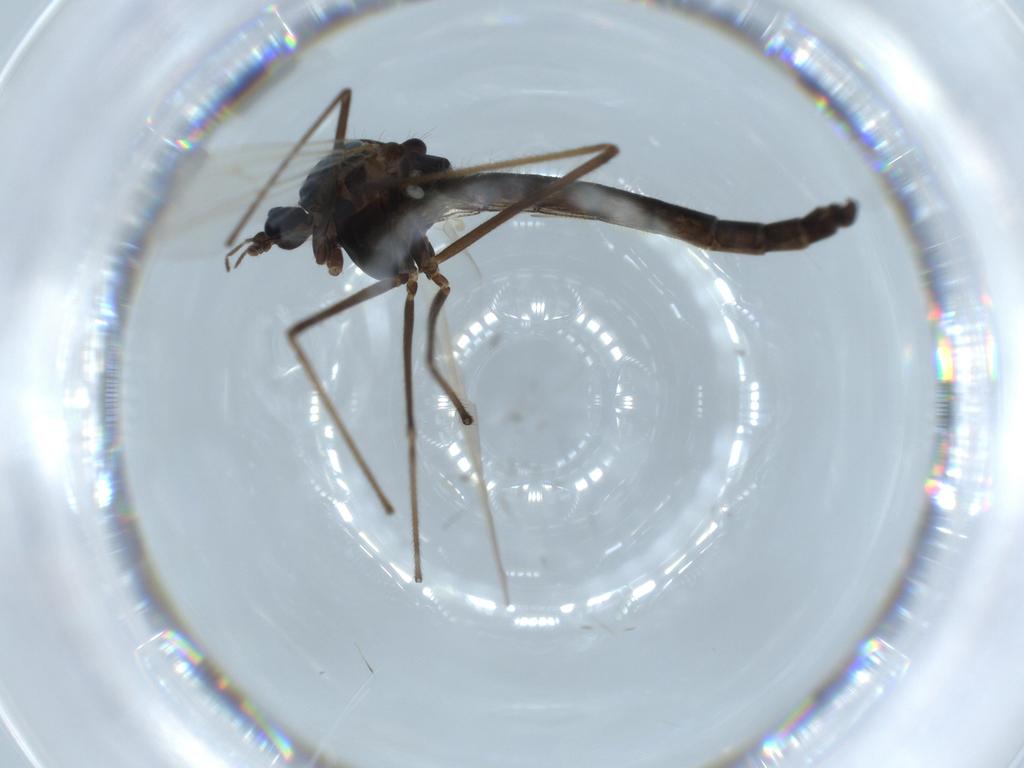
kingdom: Animalia
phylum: Arthropoda
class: Insecta
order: Diptera
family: Chironomidae
